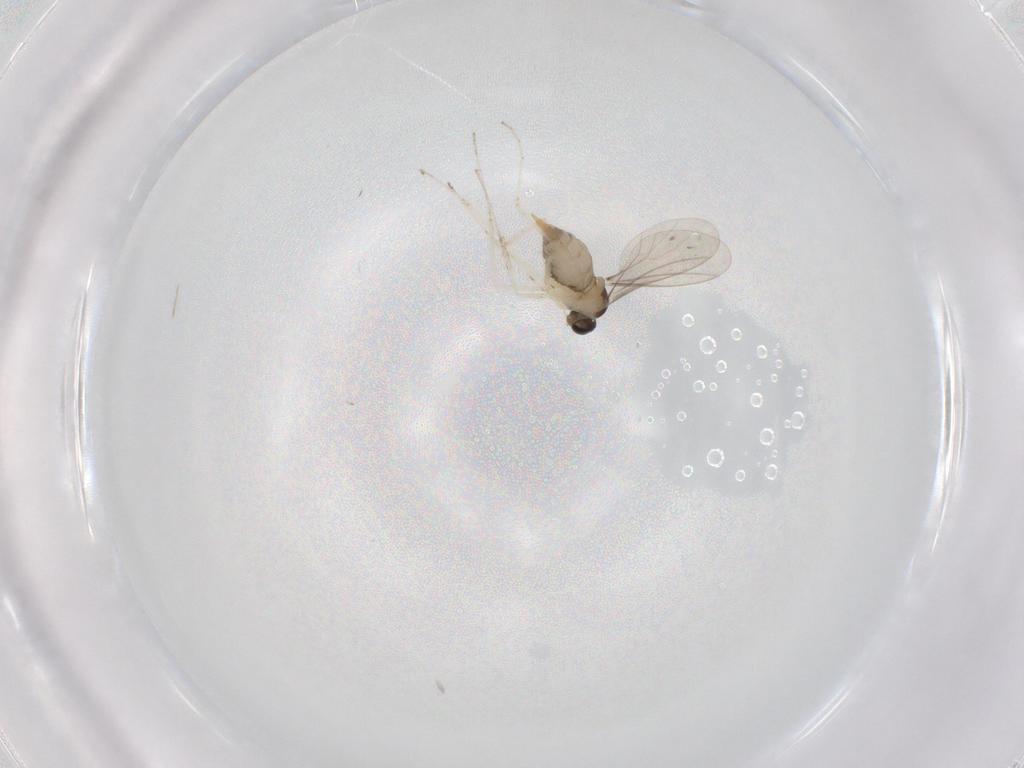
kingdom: Animalia
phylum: Arthropoda
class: Insecta
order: Diptera
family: Cecidomyiidae
